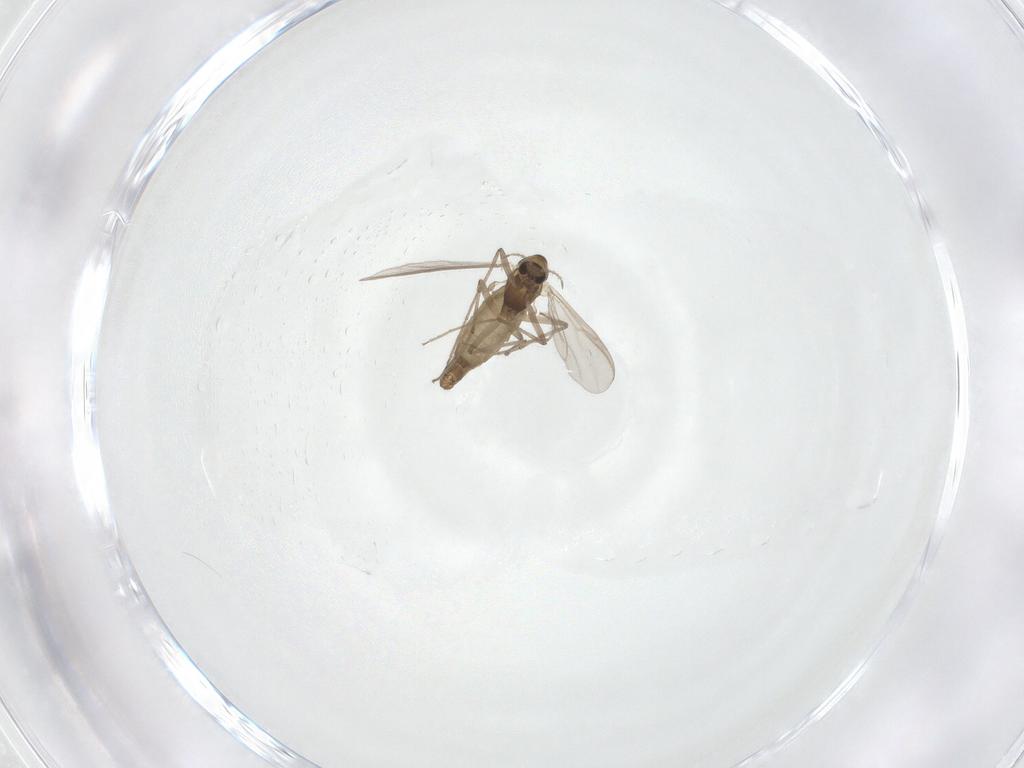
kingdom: Animalia
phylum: Arthropoda
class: Insecta
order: Diptera
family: Chironomidae
